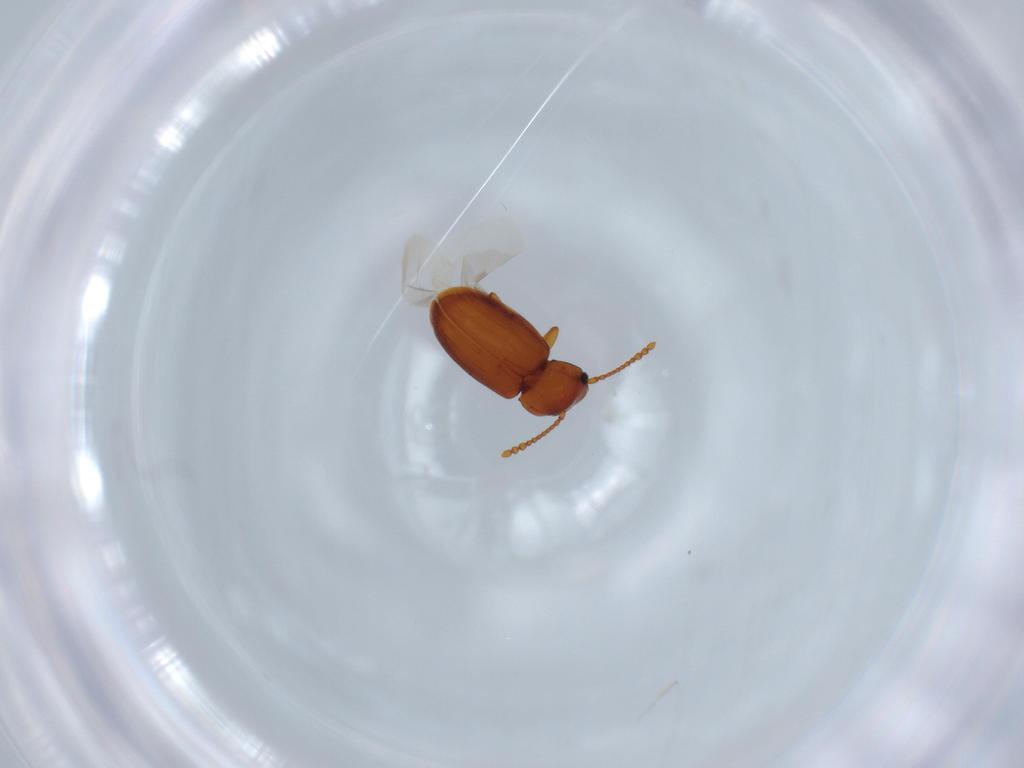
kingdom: Animalia
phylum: Arthropoda
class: Insecta
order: Coleoptera
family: Laemophloeidae
